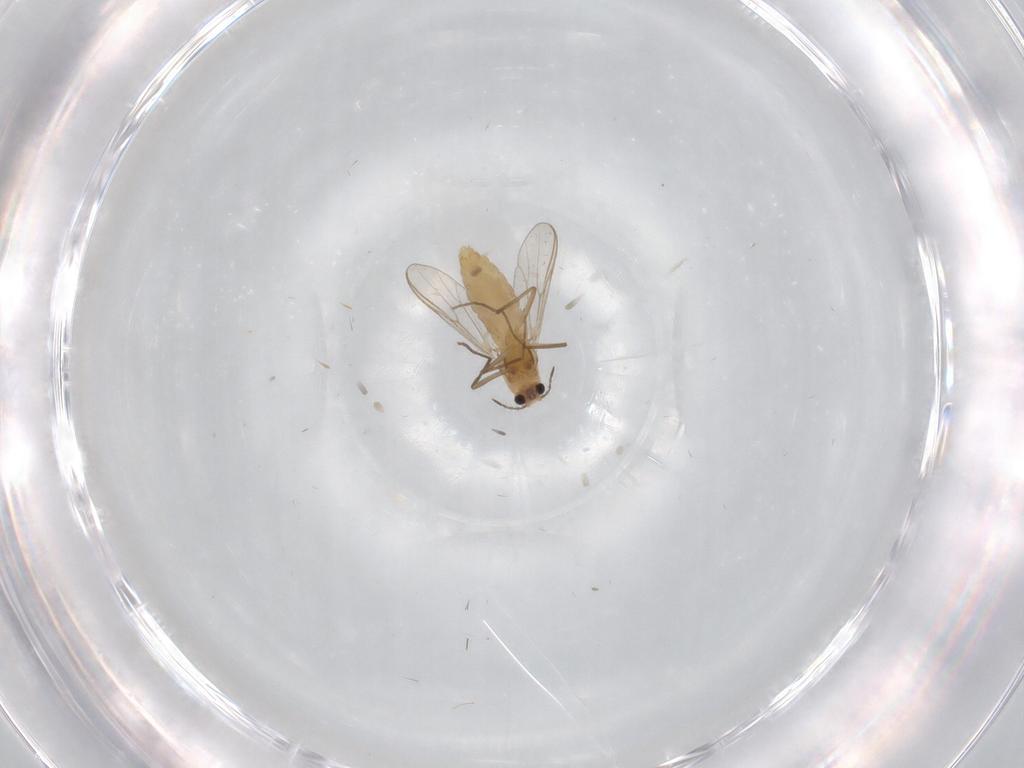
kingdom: Animalia
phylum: Arthropoda
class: Insecta
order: Diptera
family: Chironomidae
